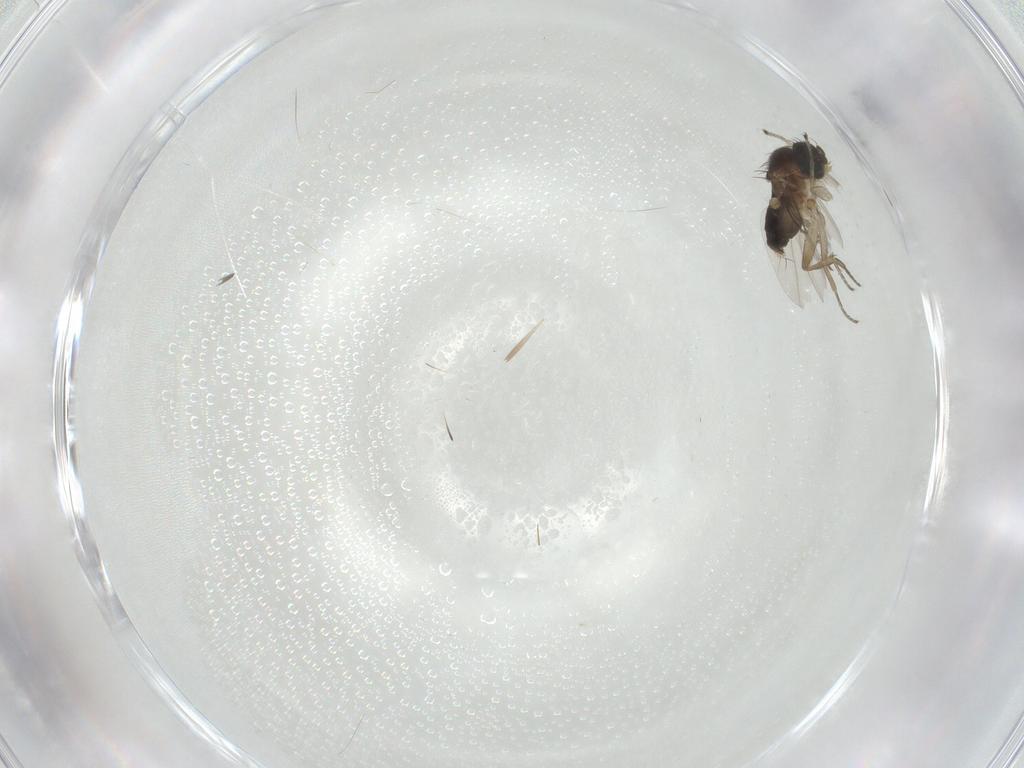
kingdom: Animalia
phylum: Arthropoda
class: Insecta
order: Diptera
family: Phoridae
